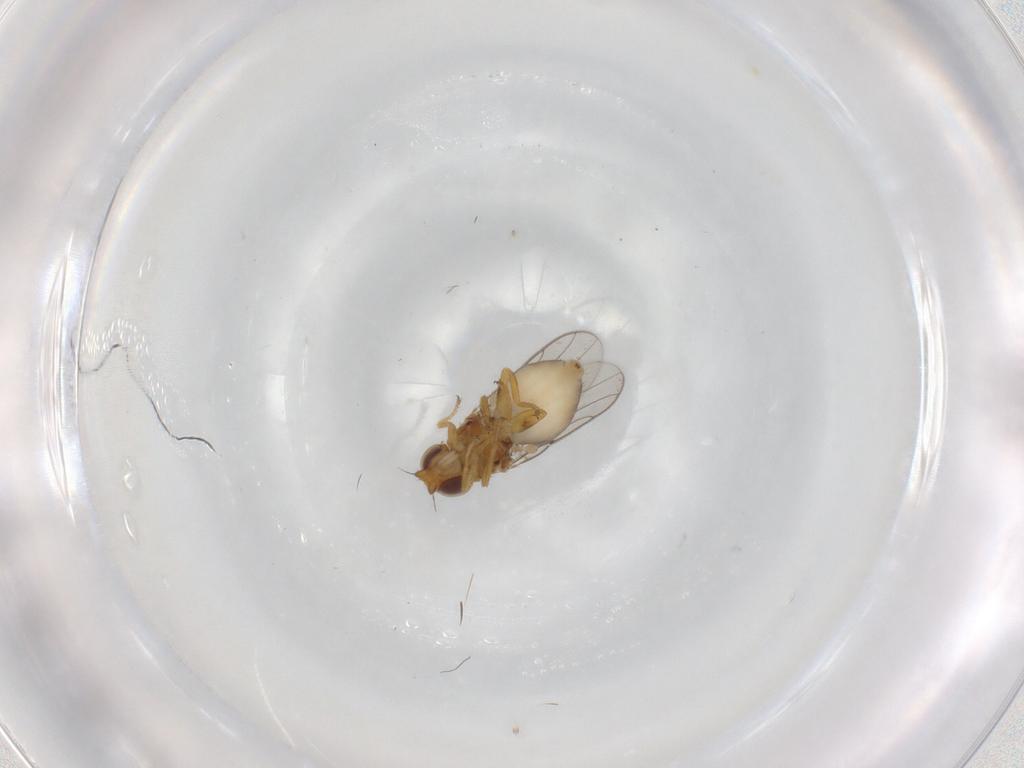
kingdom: Animalia
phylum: Arthropoda
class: Insecta
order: Diptera
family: Chloropidae
